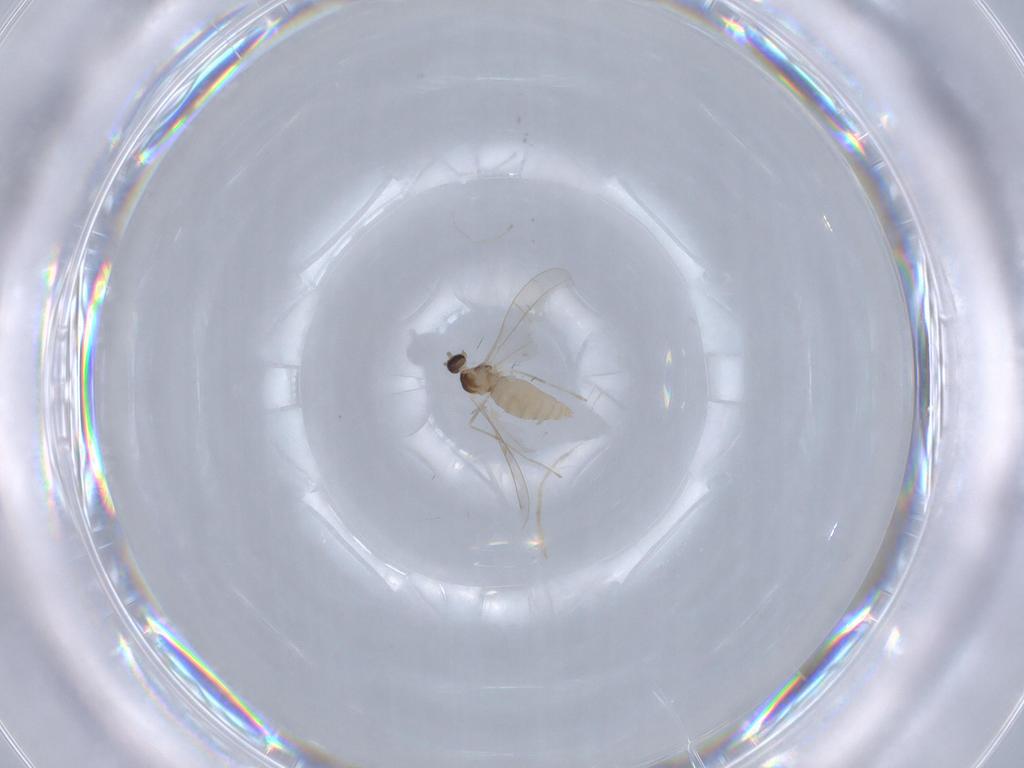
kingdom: Animalia
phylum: Arthropoda
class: Insecta
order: Diptera
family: Cecidomyiidae
